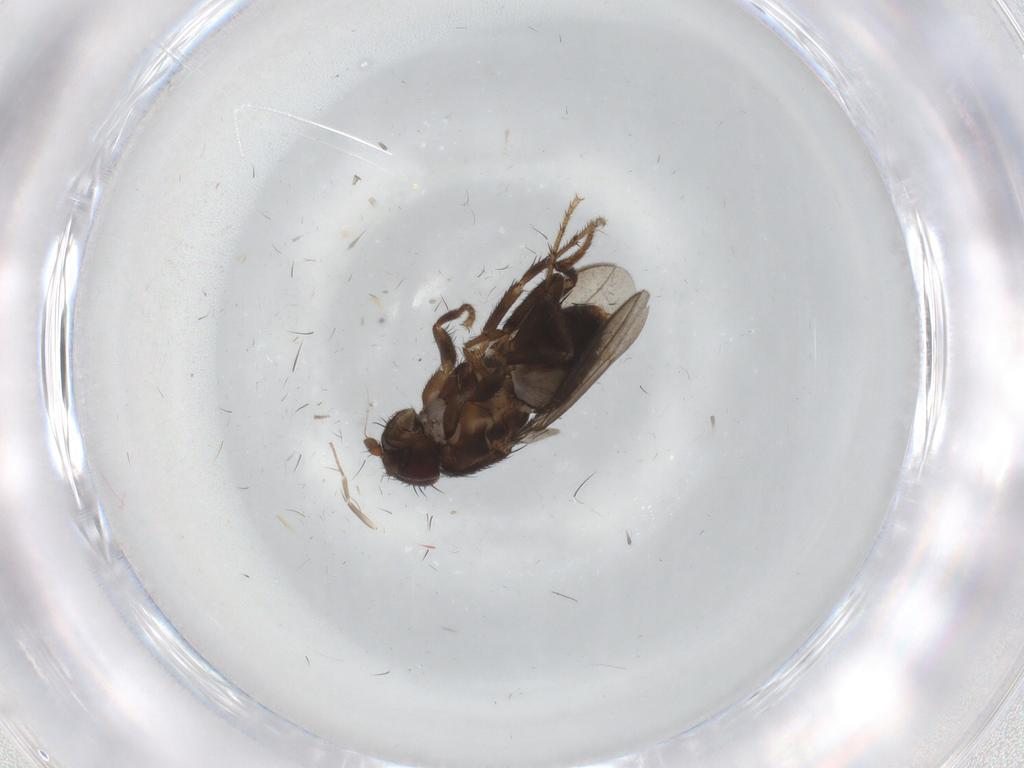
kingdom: Animalia
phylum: Arthropoda
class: Insecta
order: Diptera
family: Chironomidae
